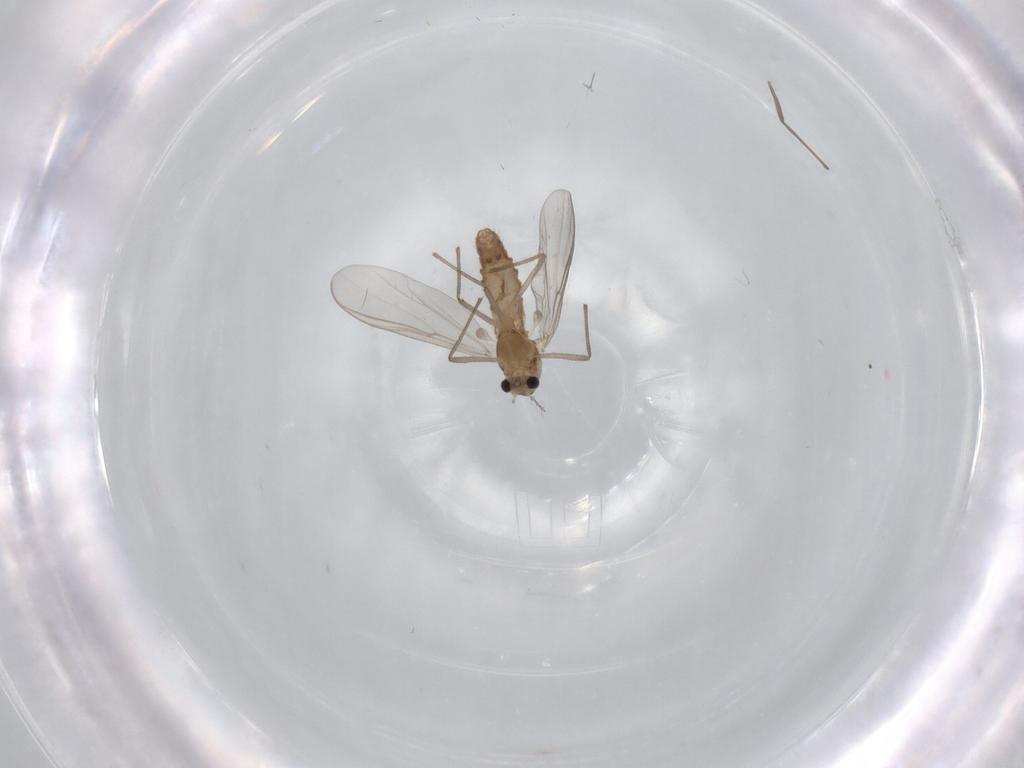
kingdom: Animalia
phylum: Arthropoda
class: Insecta
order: Diptera
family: Chironomidae
